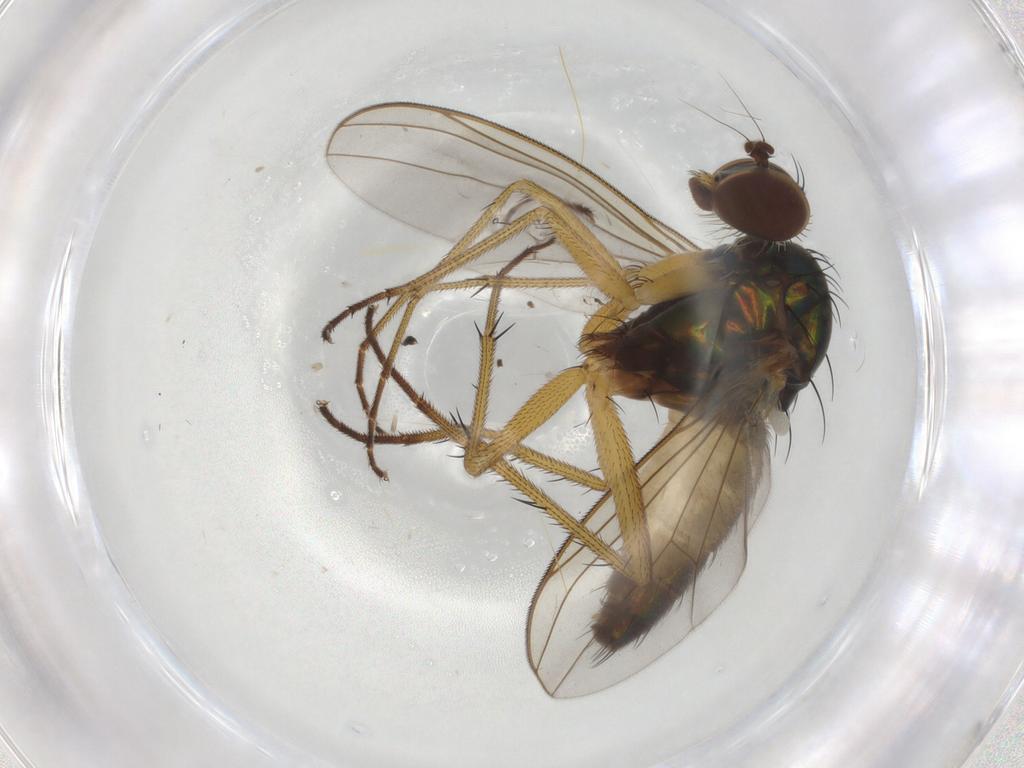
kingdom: Animalia
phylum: Arthropoda
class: Insecta
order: Diptera
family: Dolichopodidae
